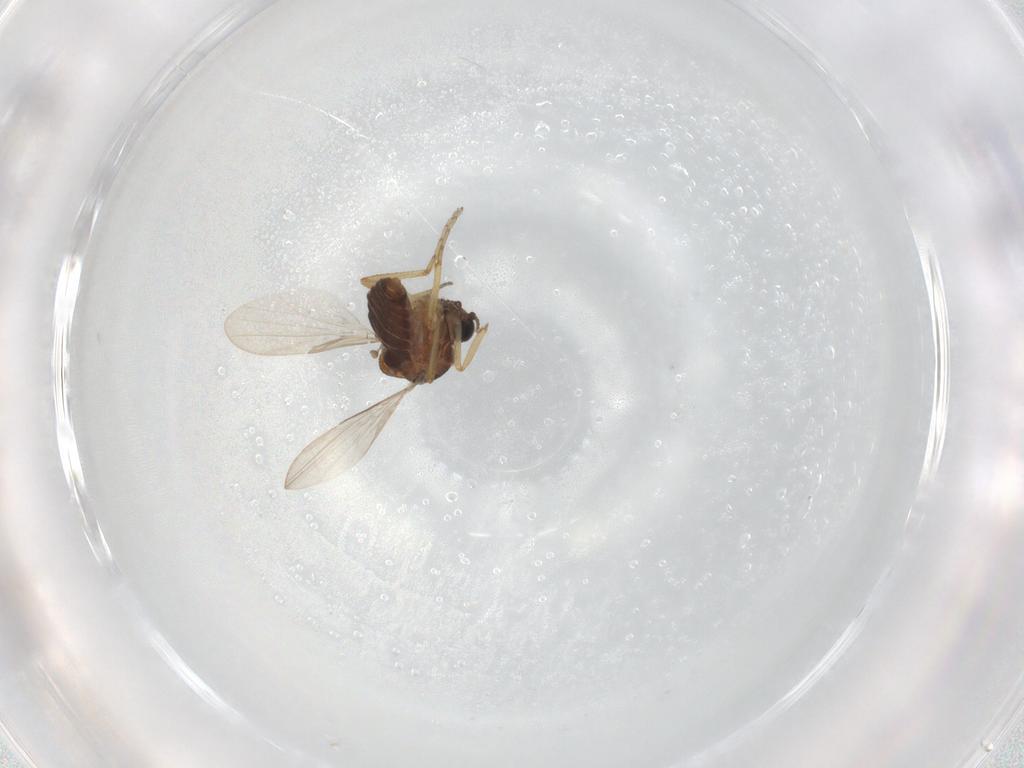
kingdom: Animalia
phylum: Arthropoda
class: Insecta
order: Diptera
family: Ceratopogonidae
